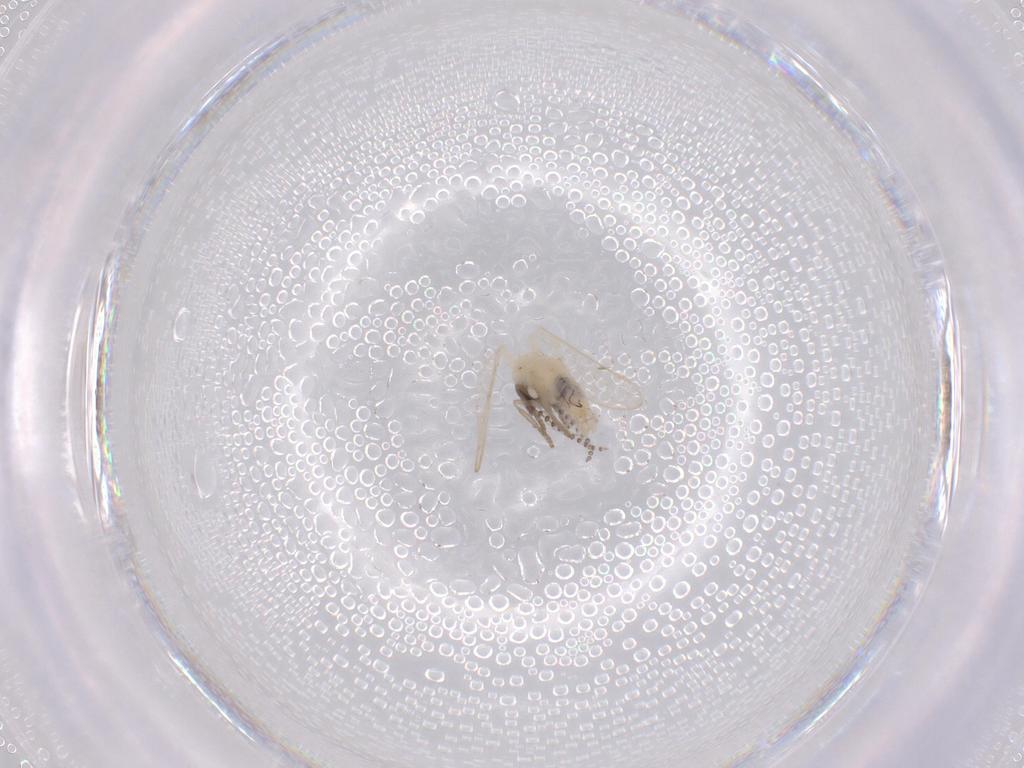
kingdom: Animalia
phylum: Arthropoda
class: Insecta
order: Diptera
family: Psychodidae
